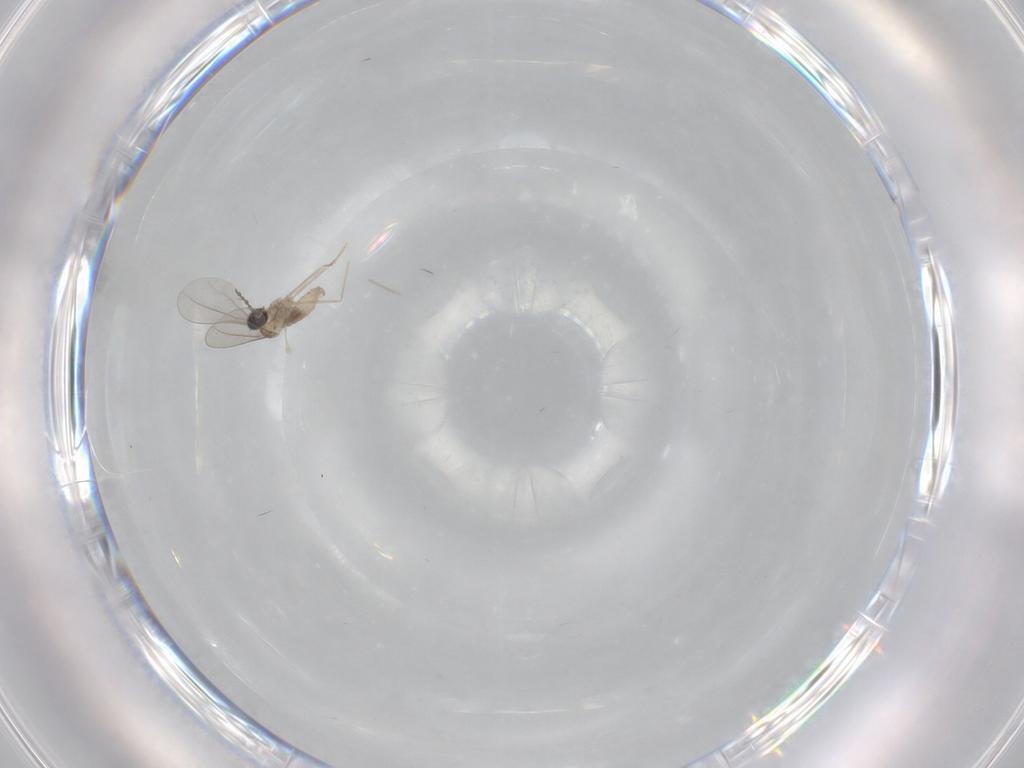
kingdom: Animalia
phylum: Arthropoda
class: Insecta
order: Diptera
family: Cecidomyiidae
